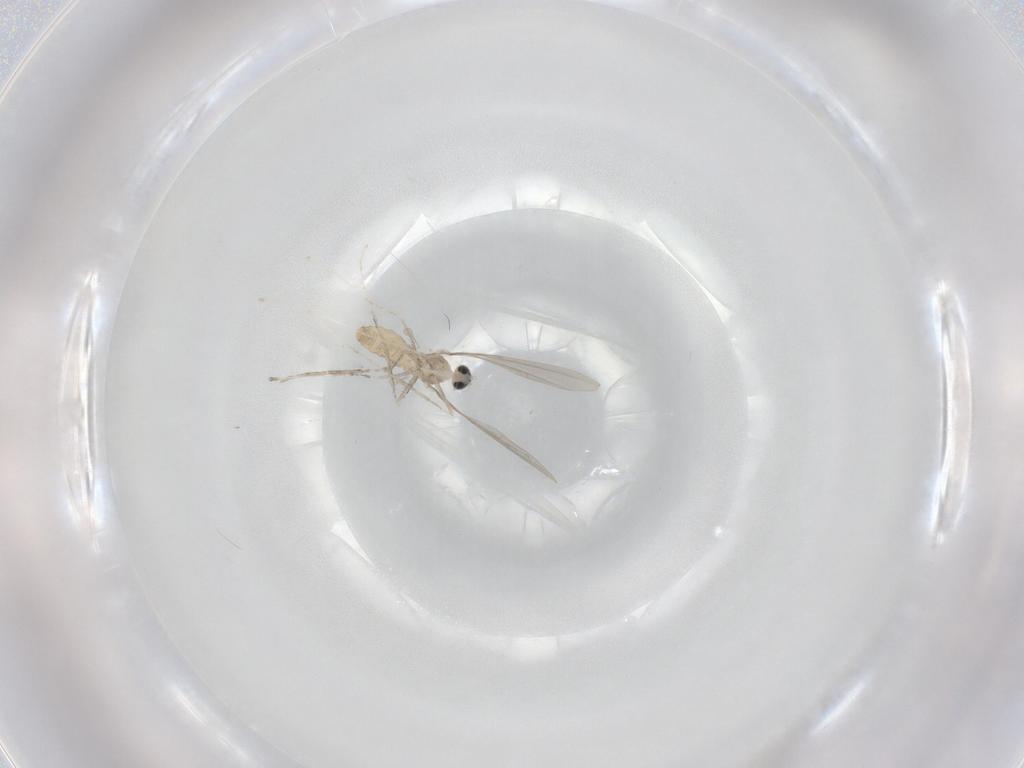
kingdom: Animalia
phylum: Arthropoda
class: Insecta
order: Diptera
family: Cecidomyiidae
